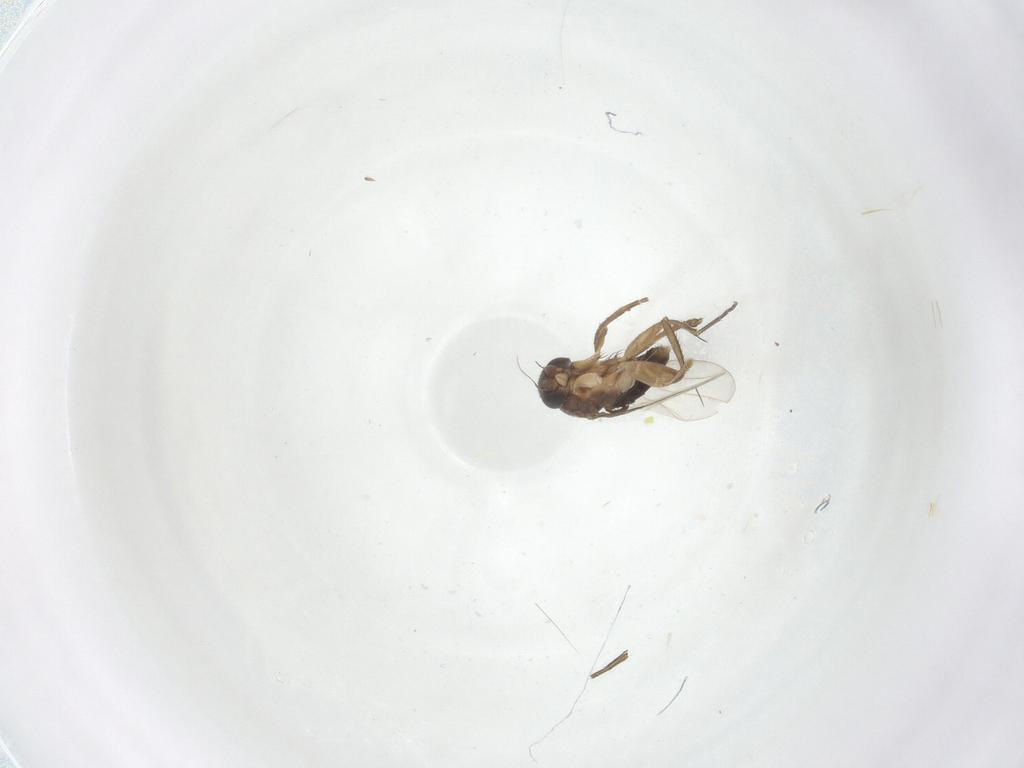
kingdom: Animalia
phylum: Arthropoda
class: Insecta
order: Diptera
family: Phoridae
